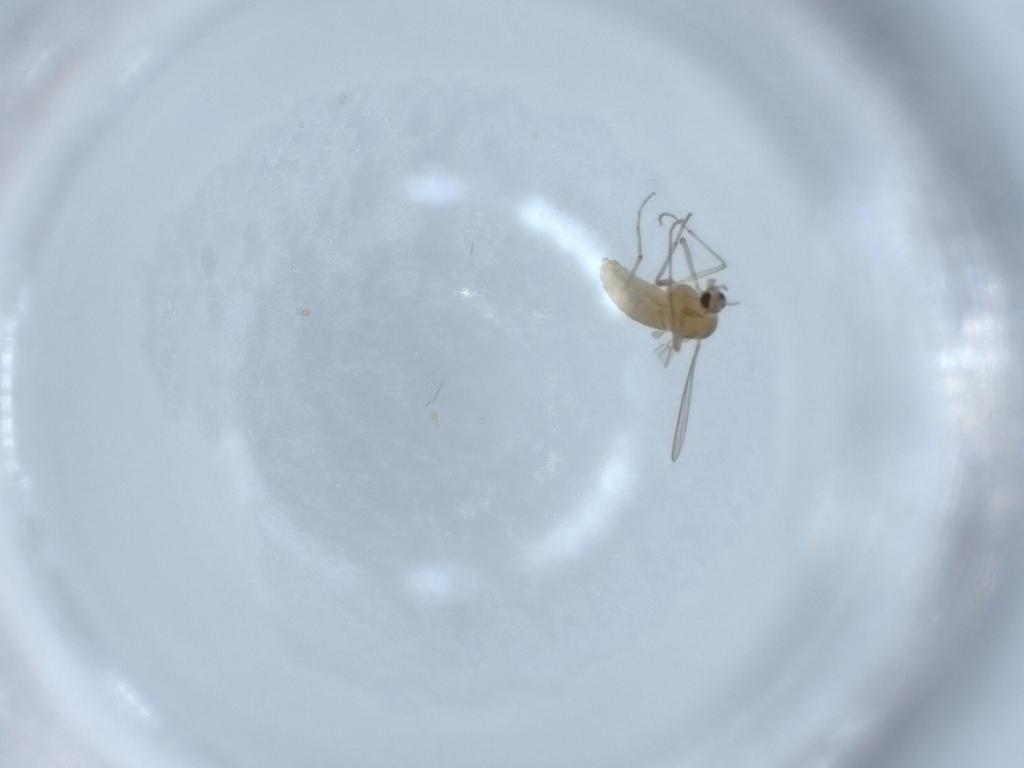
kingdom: Animalia
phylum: Arthropoda
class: Insecta
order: Diptera
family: Chironomidae
